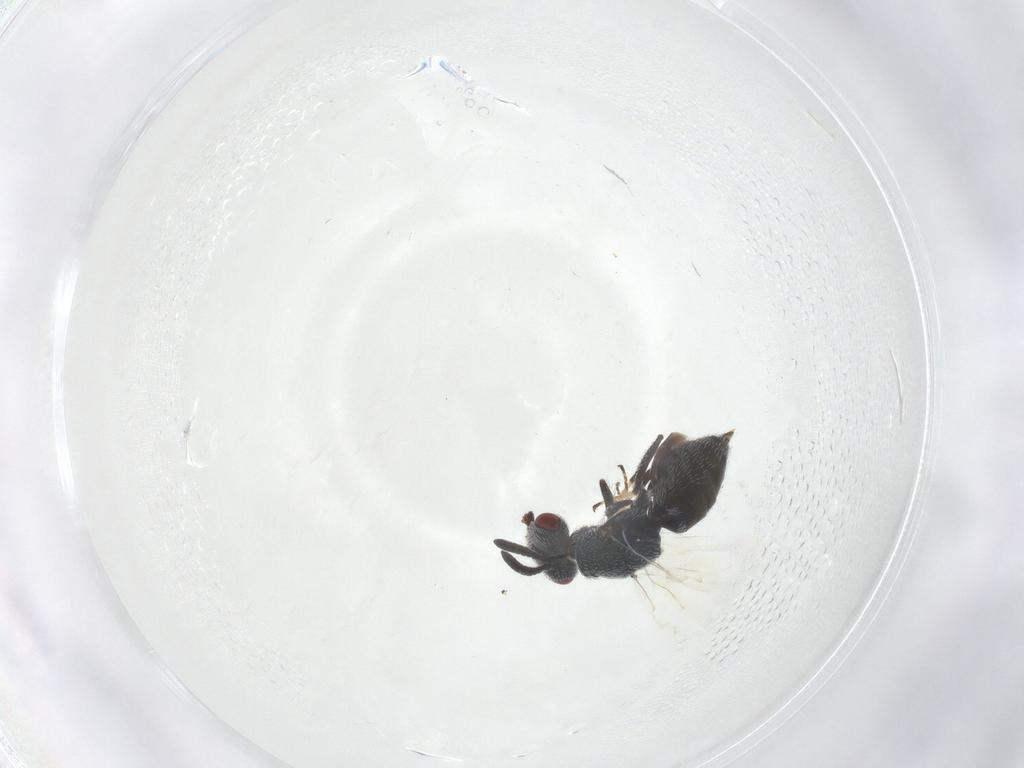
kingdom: Animalia
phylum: Arthropoda
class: Insecta
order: Hymenoptera
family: Pteromalidae
